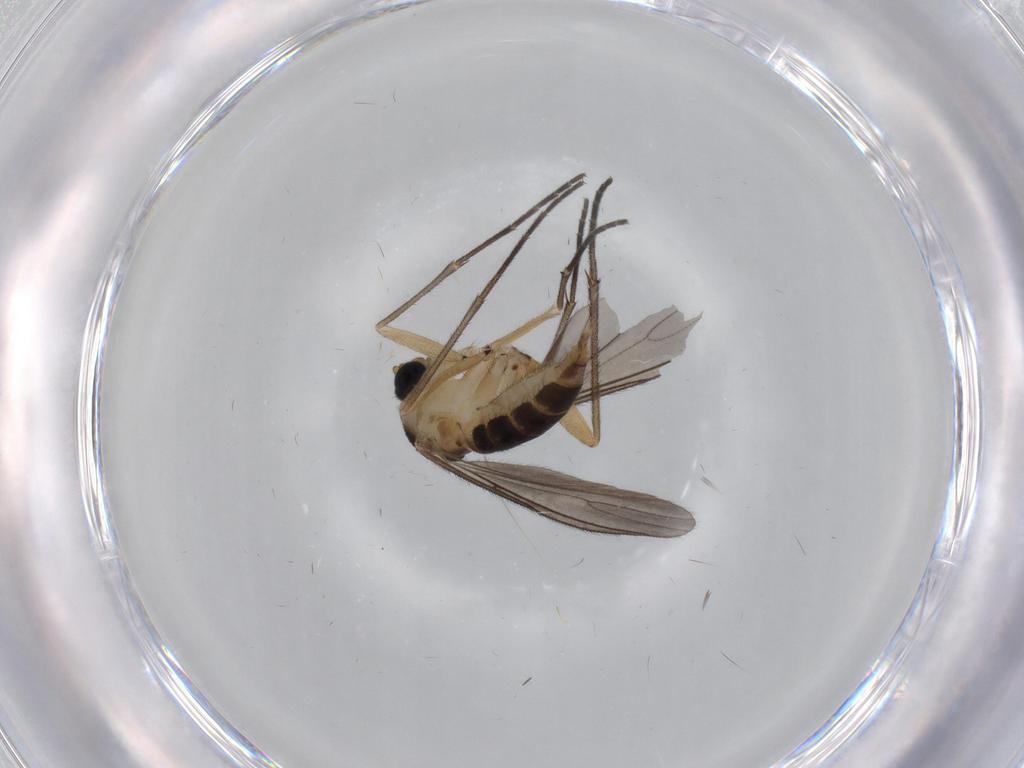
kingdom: Animalia
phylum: Arthropoda
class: Insecta
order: Diptera
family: Sciaridae
